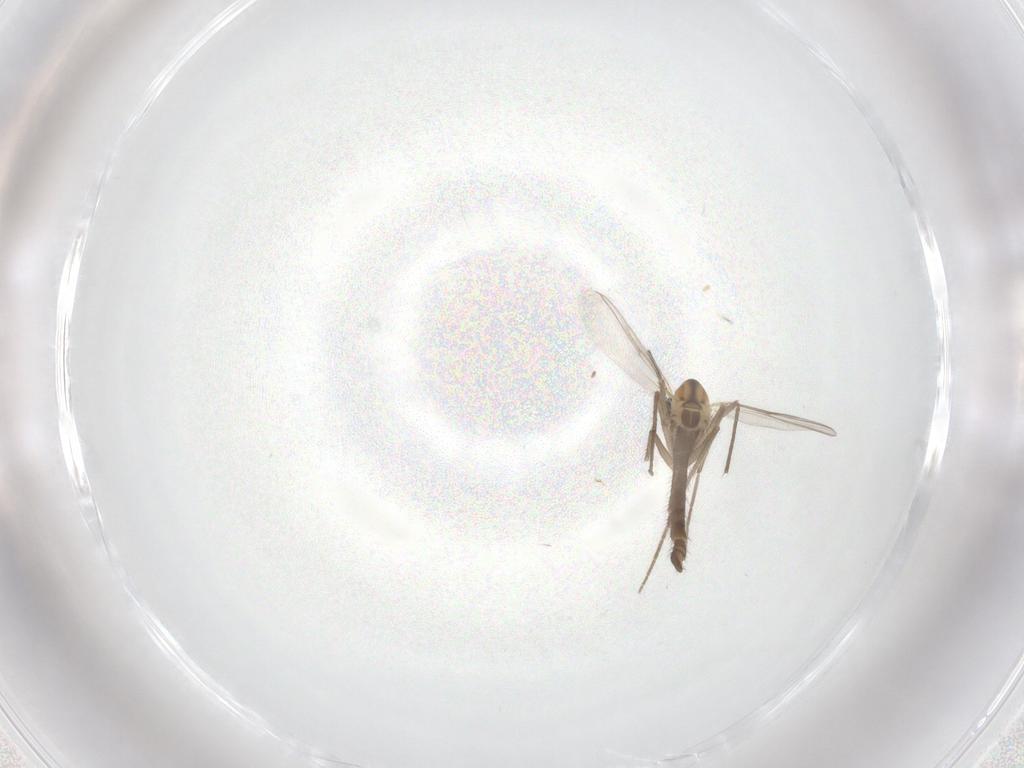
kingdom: Animalia
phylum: Arthropoda
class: Insecta
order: Diptera
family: Chironomidae
